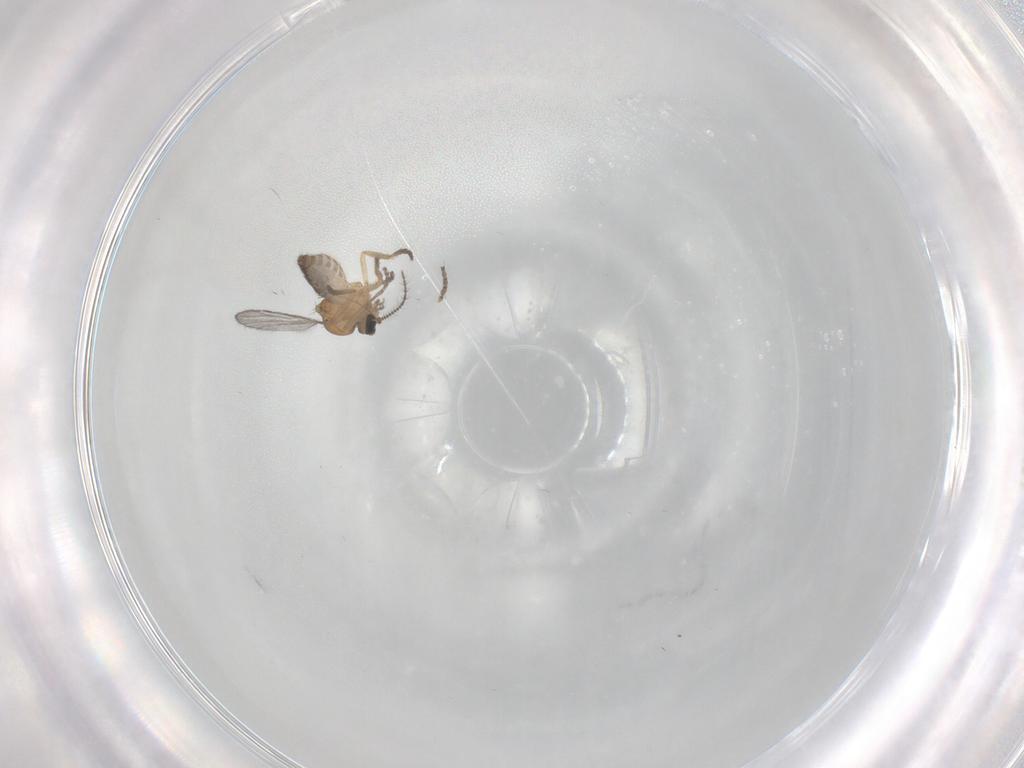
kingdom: Animalia
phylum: Arthropoda
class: Insecta
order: Diptera
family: Ceratopogonidae
